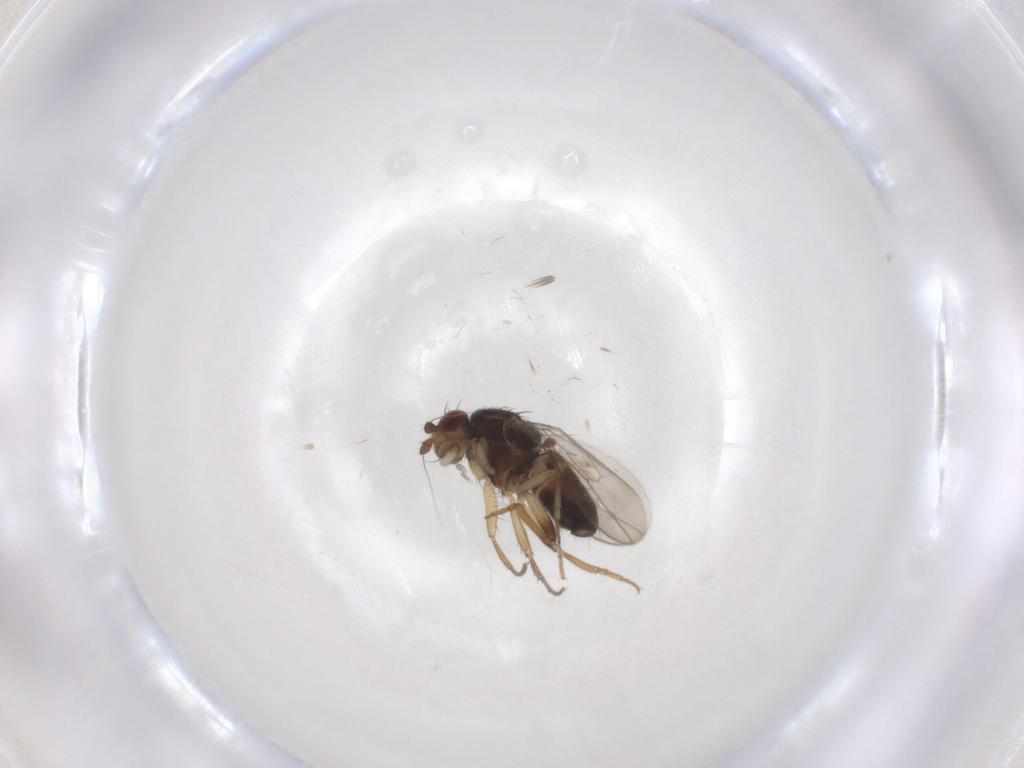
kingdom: Animalia
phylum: Arthropoda
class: Insecta
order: Diptera
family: Sphaeroceridae
